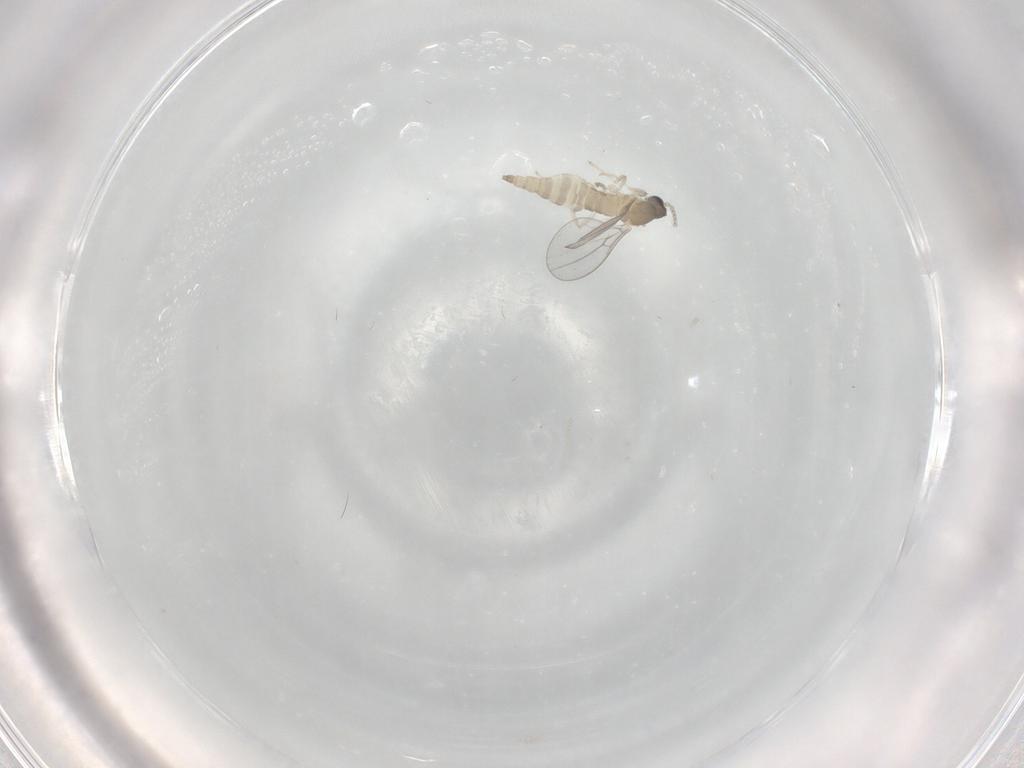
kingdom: Animalia
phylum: Arthropoda
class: Insecta
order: Diptera
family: Cecidomyiidae
